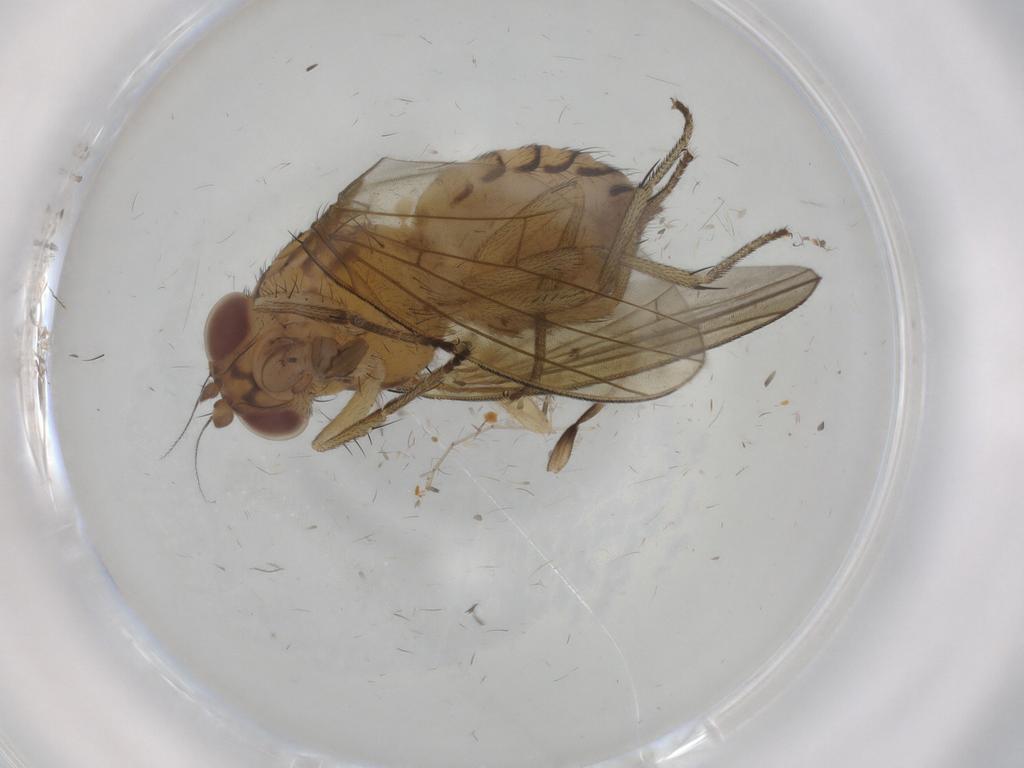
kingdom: Animalia
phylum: Arthropoda
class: Insecta
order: Diptera
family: Chironomidae
